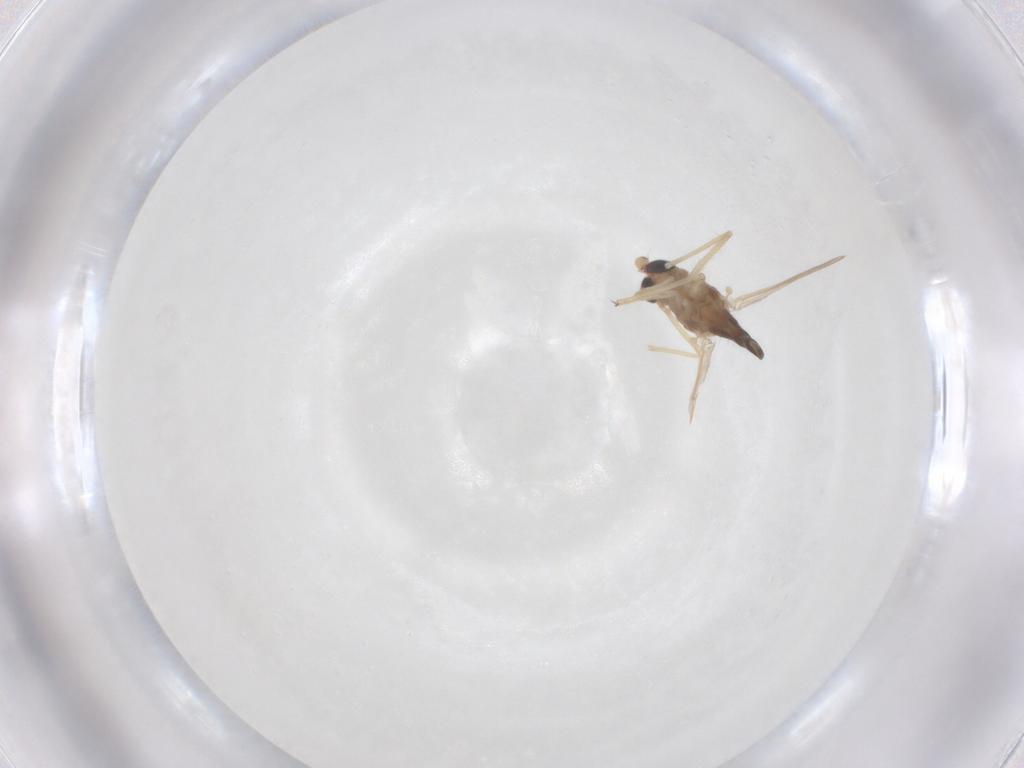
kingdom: Animalia
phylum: Arthropoda
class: Insecta
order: Diptera
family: Chironomidae
